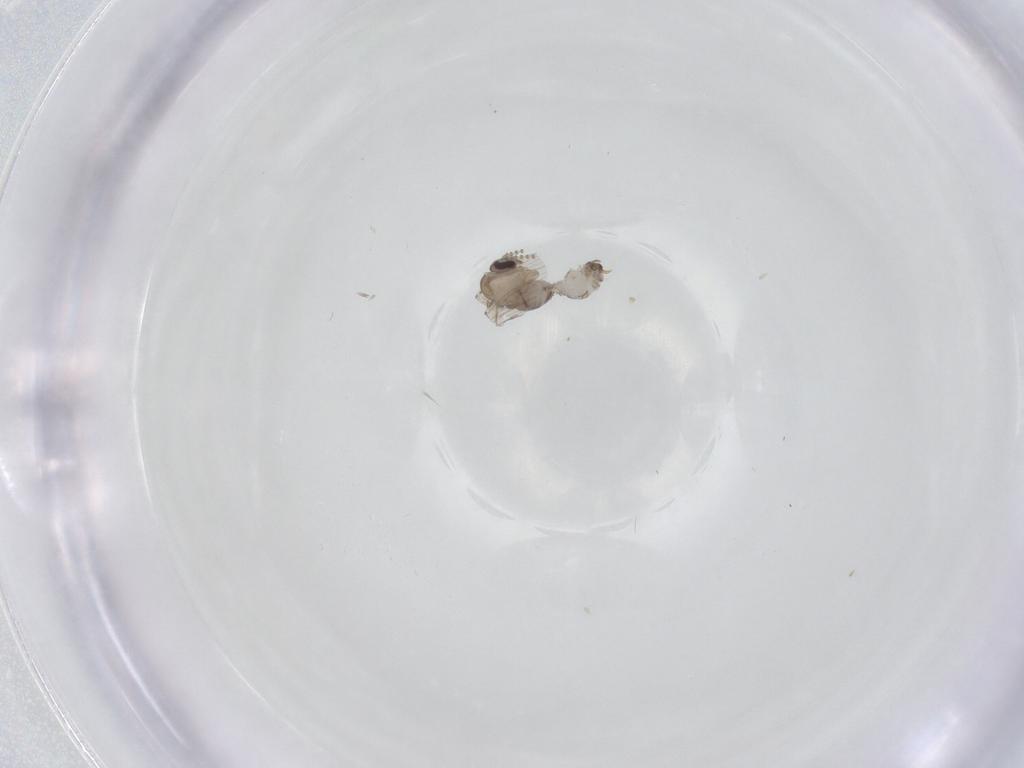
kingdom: Animalia
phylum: Arthropoda
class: Insecta
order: Diptera
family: Psychodidae
